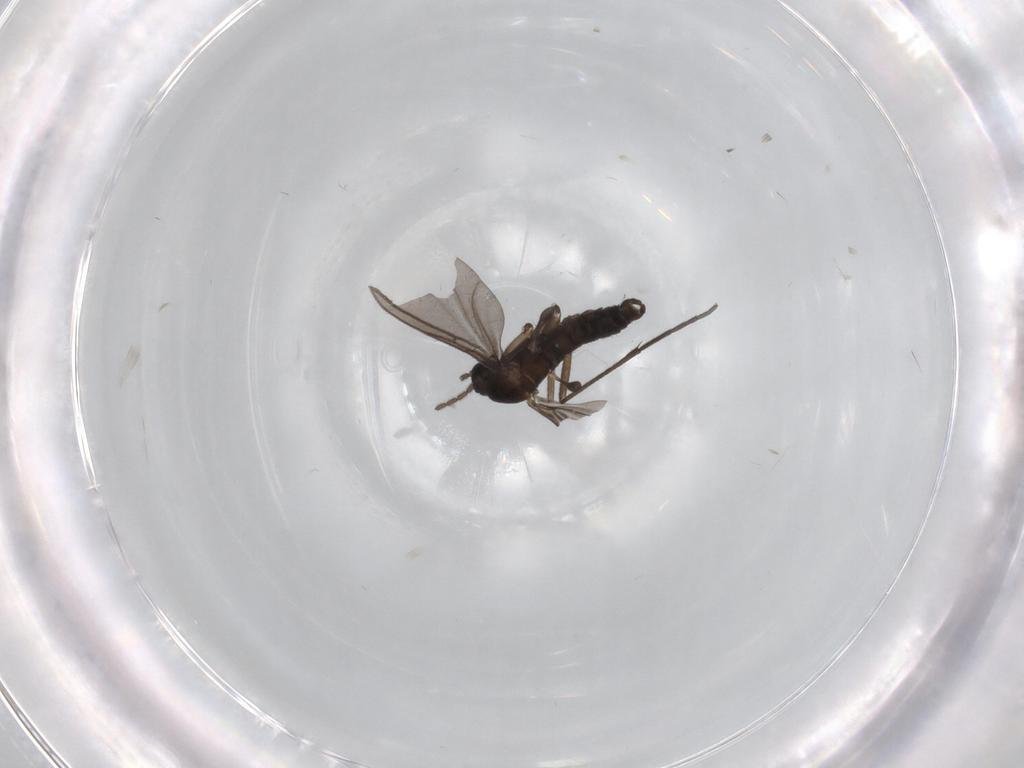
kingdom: Animalia
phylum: Arthropoda
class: Insecta
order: Diptera
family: Sciaridae
